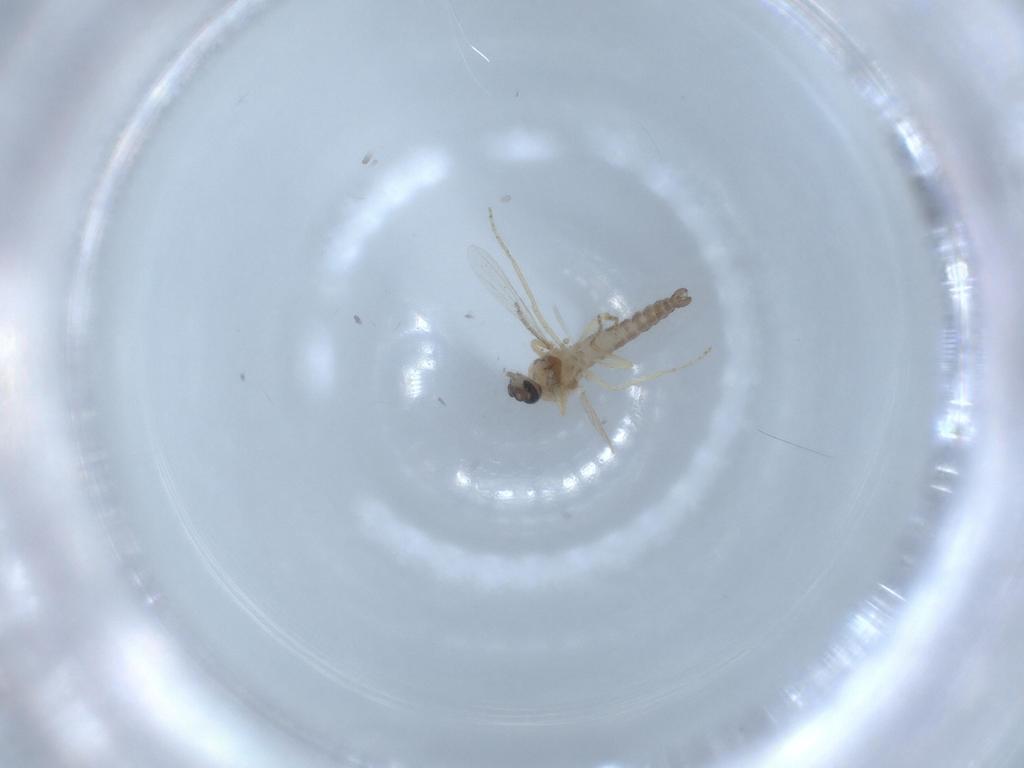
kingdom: Animalia
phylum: Arthropoda
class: Insecta
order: Diptera
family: Ceratopogonidae
